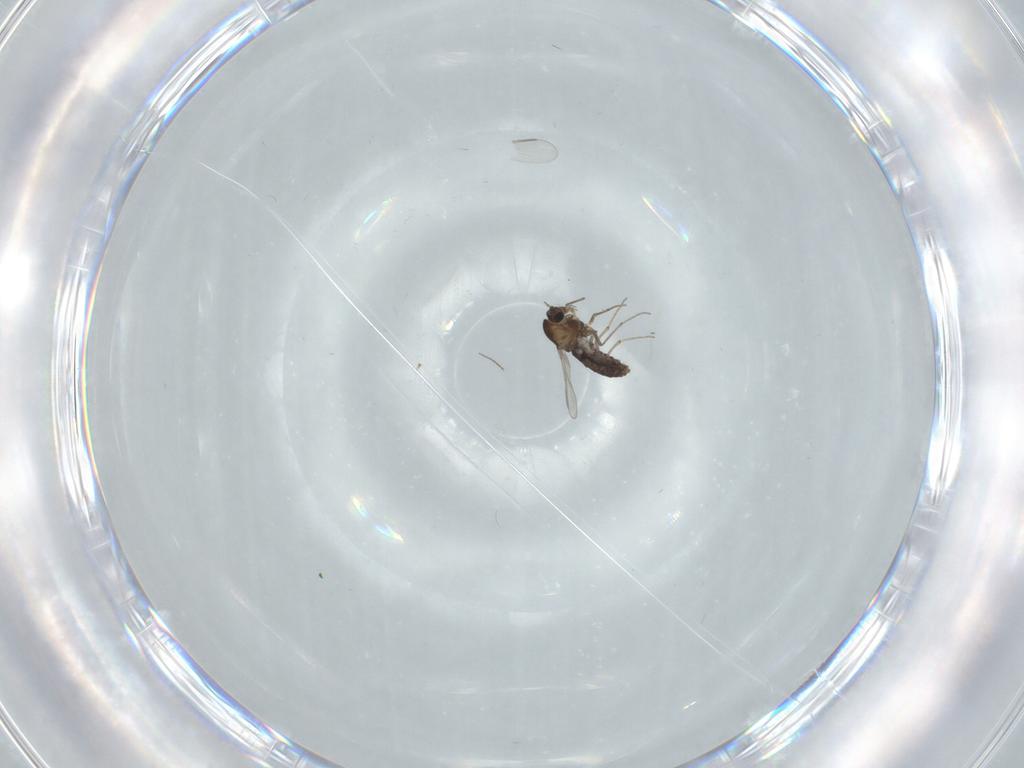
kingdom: Animalia
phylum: Arthropoda
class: Insecta
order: Diptera
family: Chironomidae
